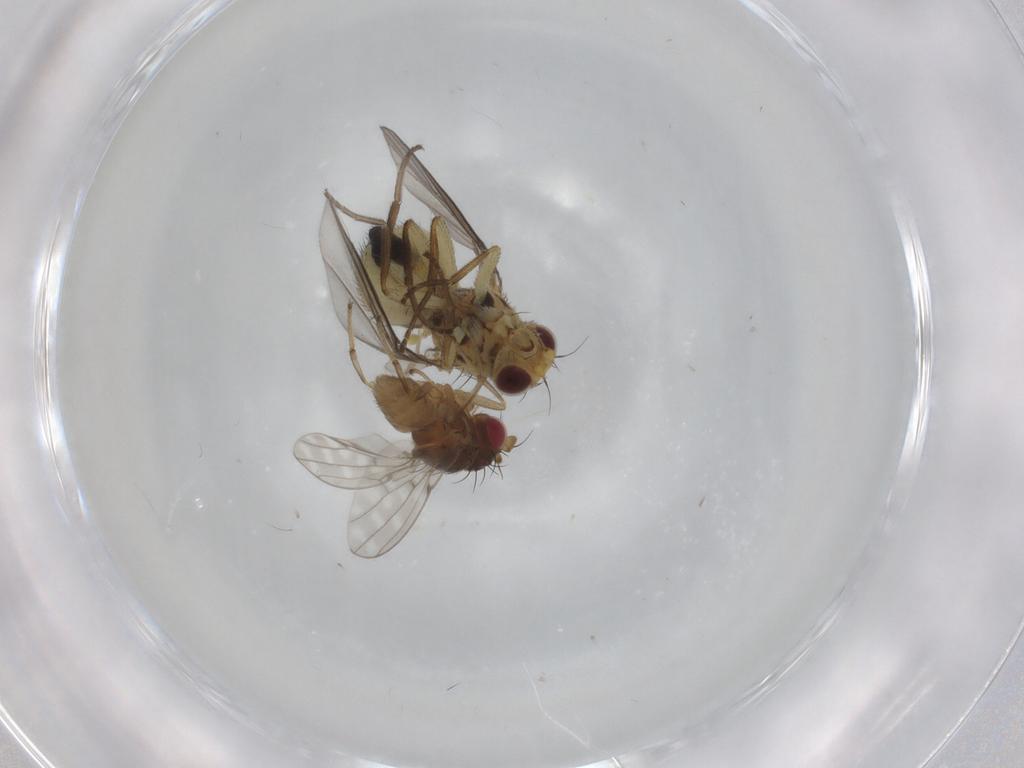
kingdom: Animalia
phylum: Arthropoda
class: Insecta
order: Diptera
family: Agromyzidae
